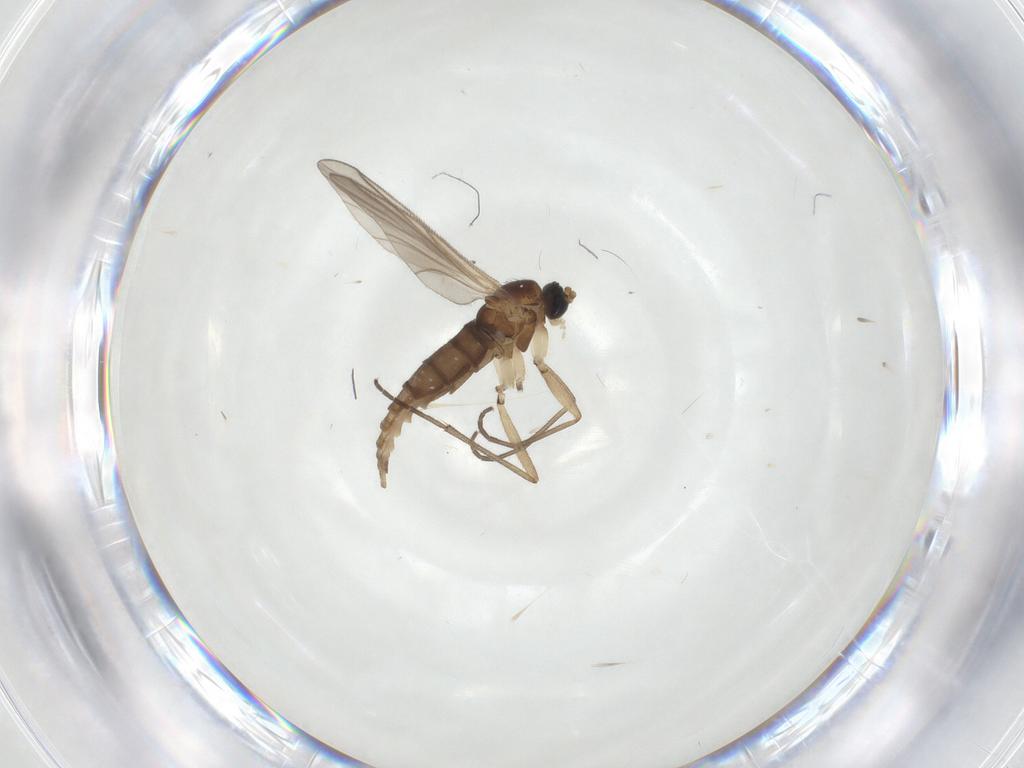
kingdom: Animalia
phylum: Arthropoda
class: Insecta
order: Diptera
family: Sciaridae
